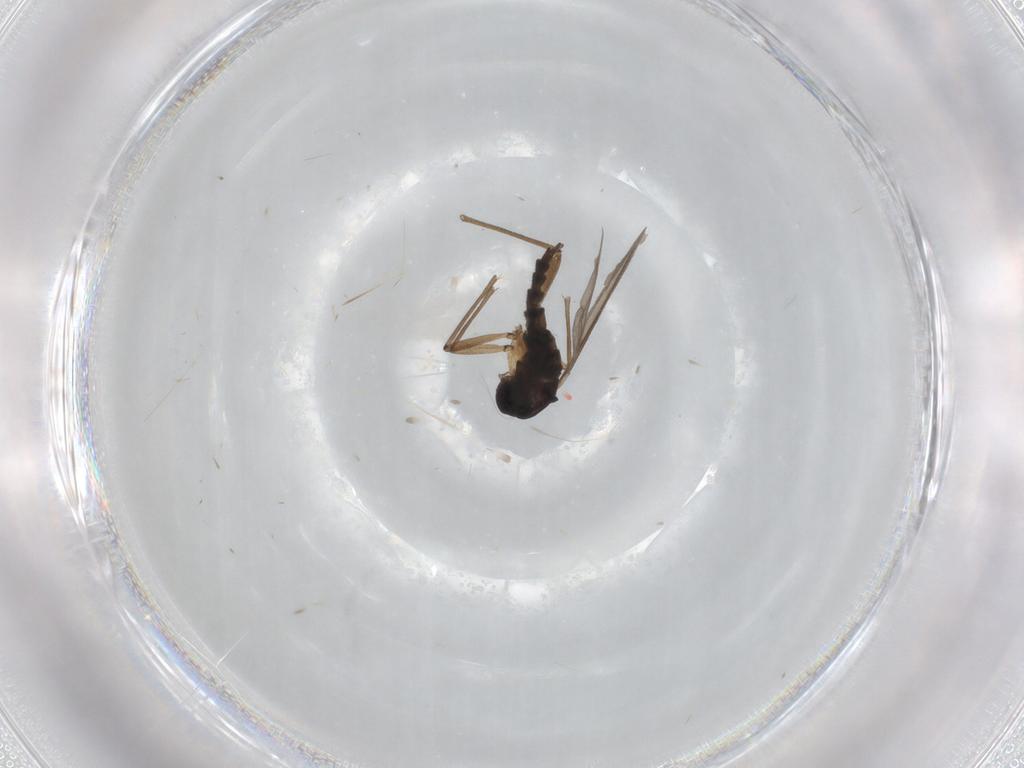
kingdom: Animalia
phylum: Arthropoda
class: Insecta
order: Diptera
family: Sciaridae
